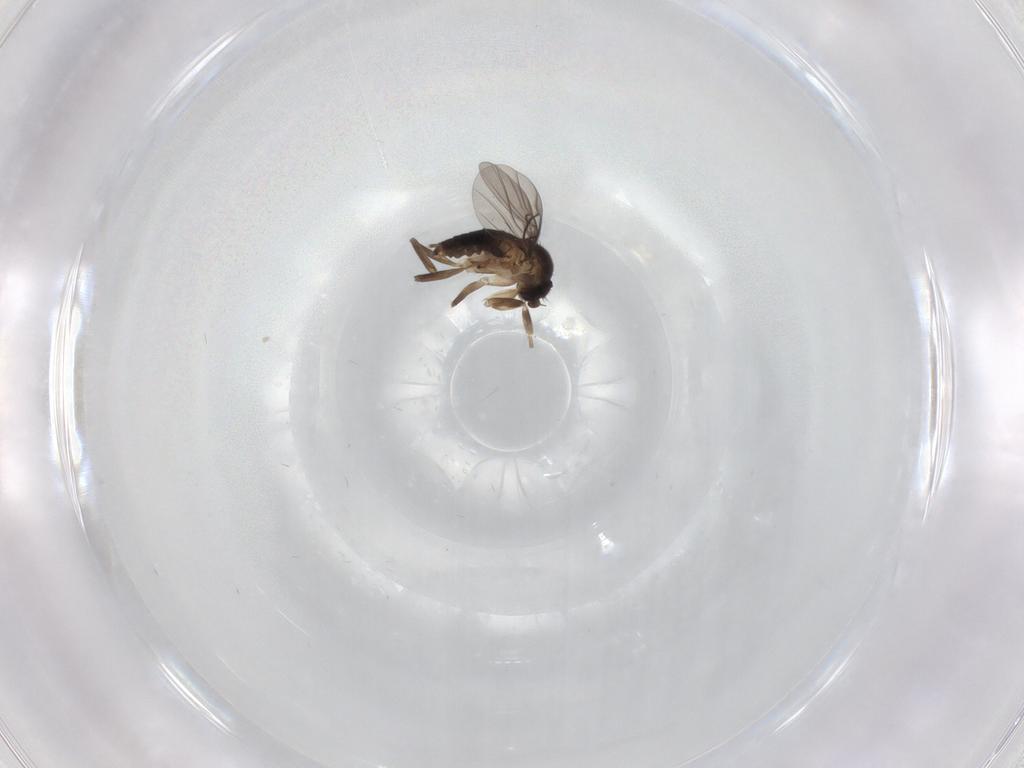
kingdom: Animalia
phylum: Arthropoda
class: Insecta
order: Diptera
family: Phoridae
